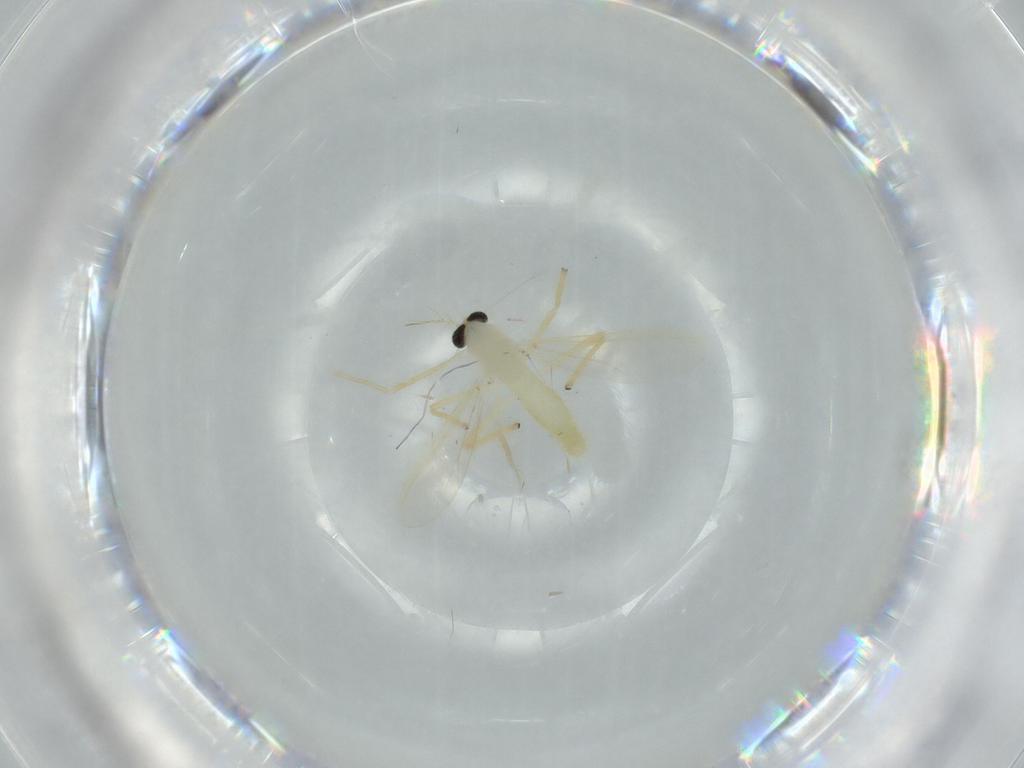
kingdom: Animalia
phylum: Arthropoda
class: Insecta
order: Diptera
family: Chironomidae
